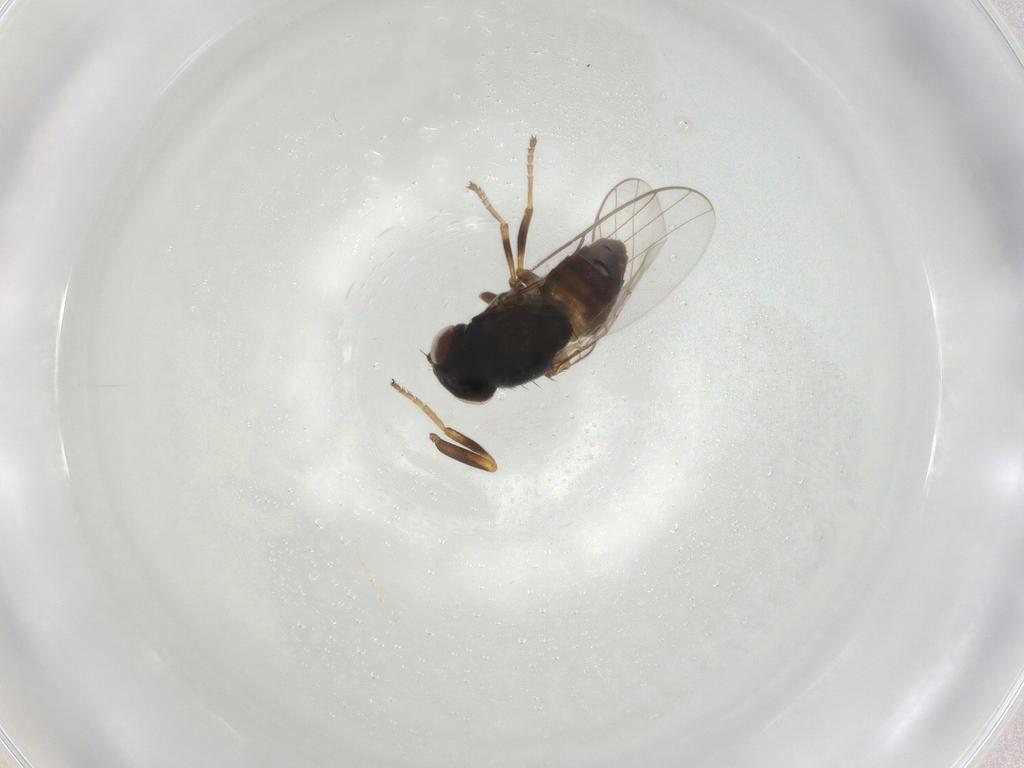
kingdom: Animalia
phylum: Arthropoda
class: Insecta
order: Diptera
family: Chloropidae
